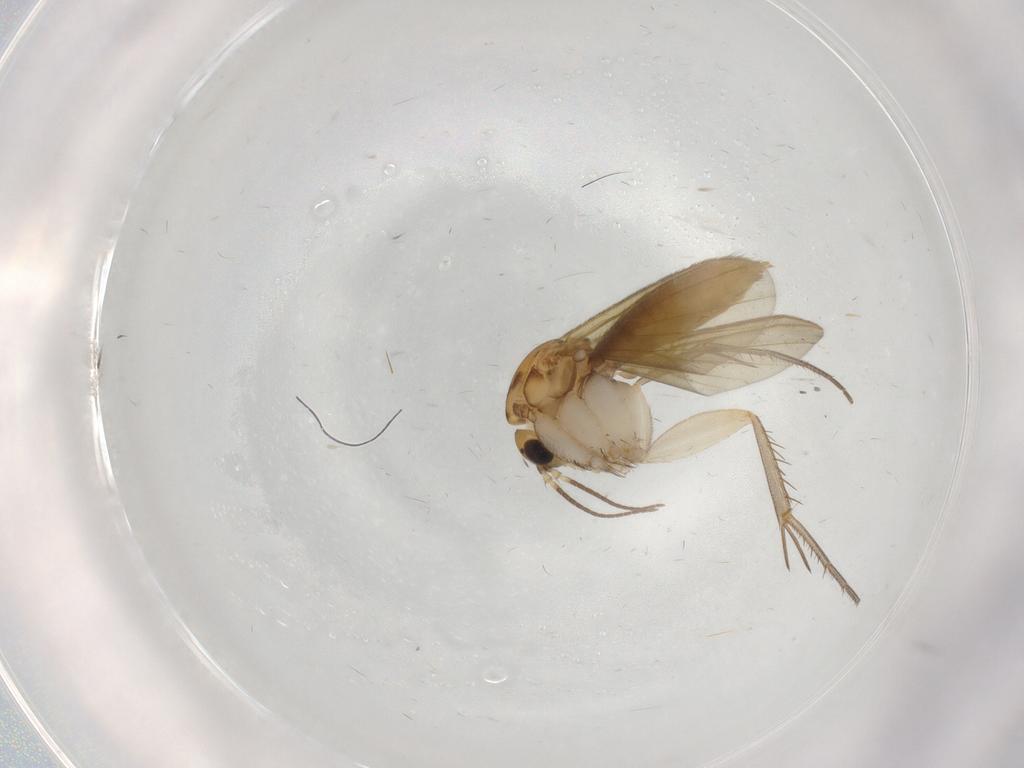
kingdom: Animalia
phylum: Arthropoda
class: Insecta
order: Diptera
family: Mycetophilidae
